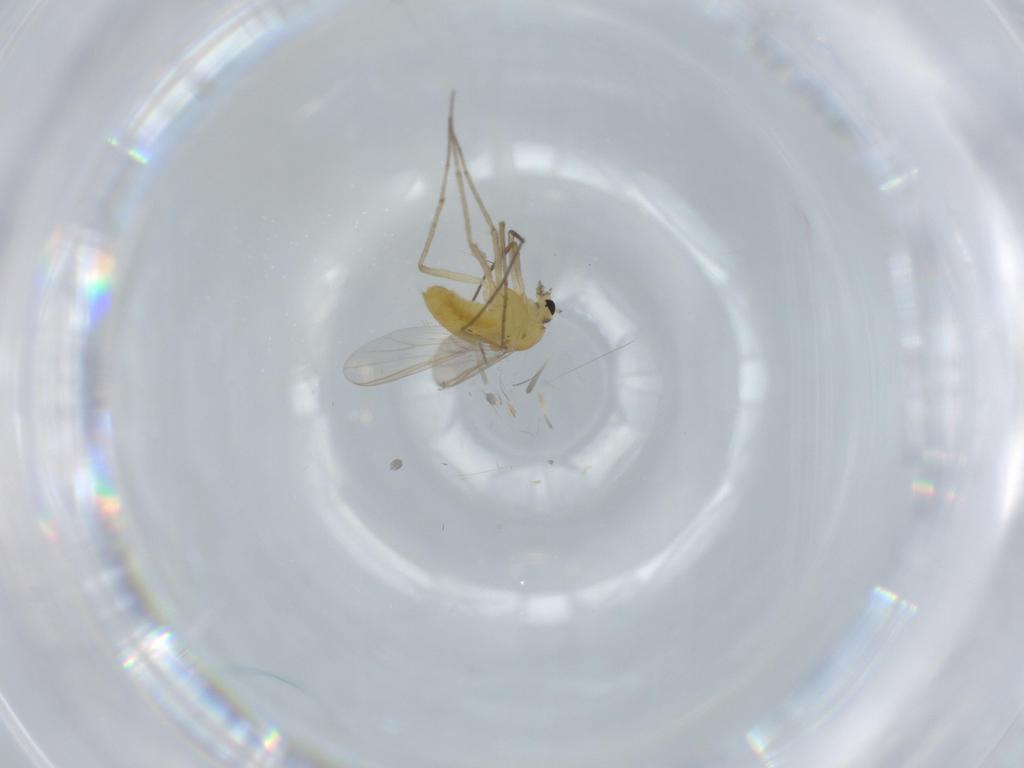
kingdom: Animalia
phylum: Arthropoda
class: Insecta
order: Diptera
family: Chironomidae
